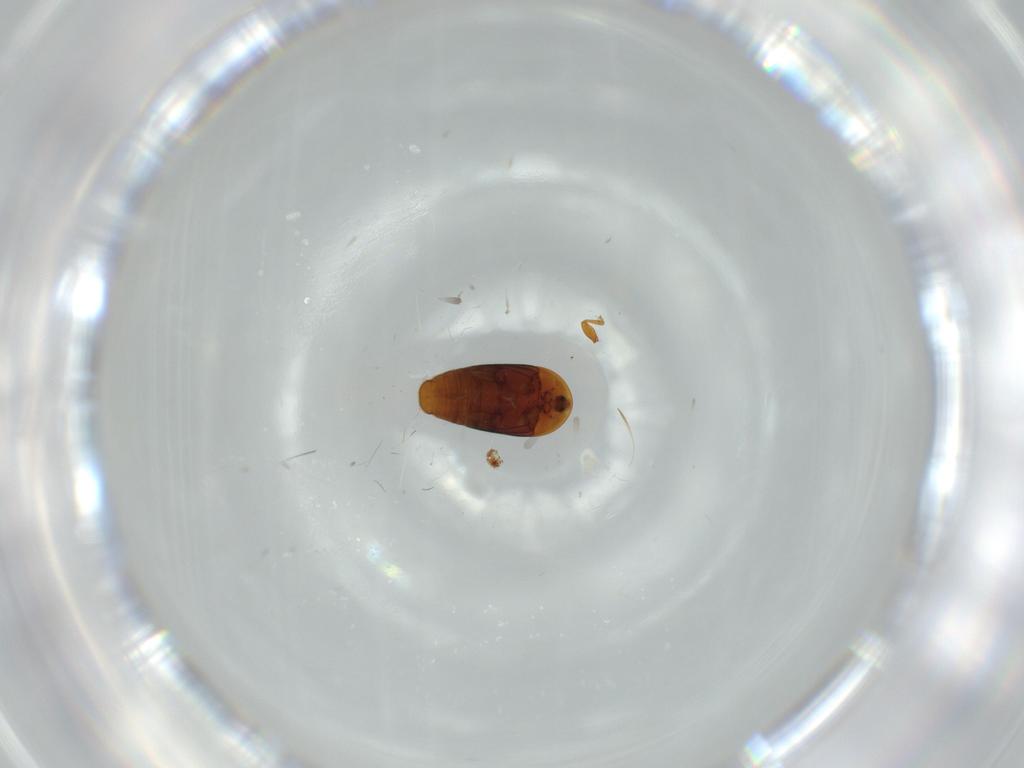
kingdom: Animalia
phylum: Arthropoda
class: Insecta
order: Coleoptera
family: Corylophidae
